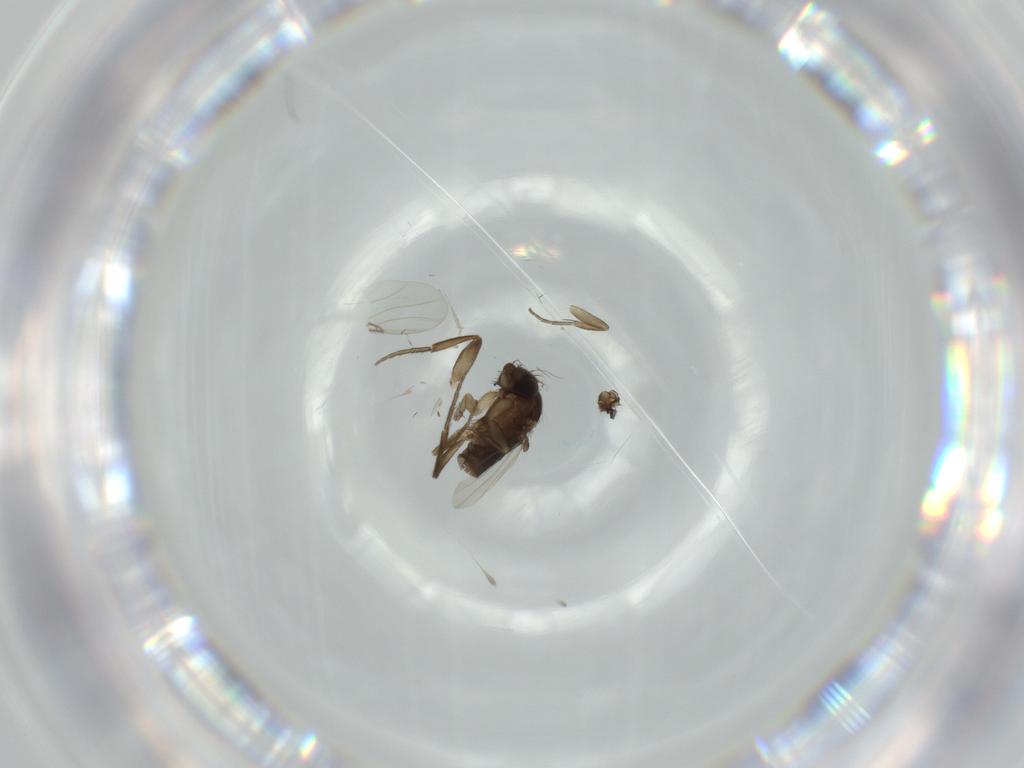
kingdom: Animalia
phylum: Arthropoda
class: Insecta
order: Diptera
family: Phoridae
